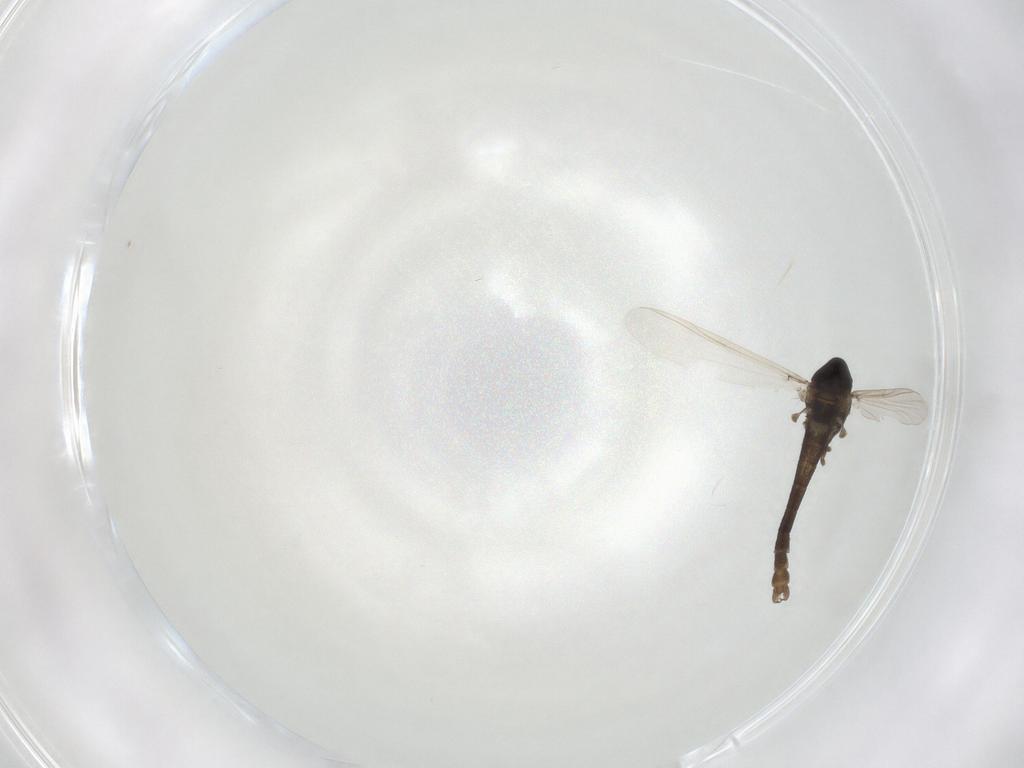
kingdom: Animalia
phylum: Arthropoda
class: Insecta
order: Diptera
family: Chironomidae
